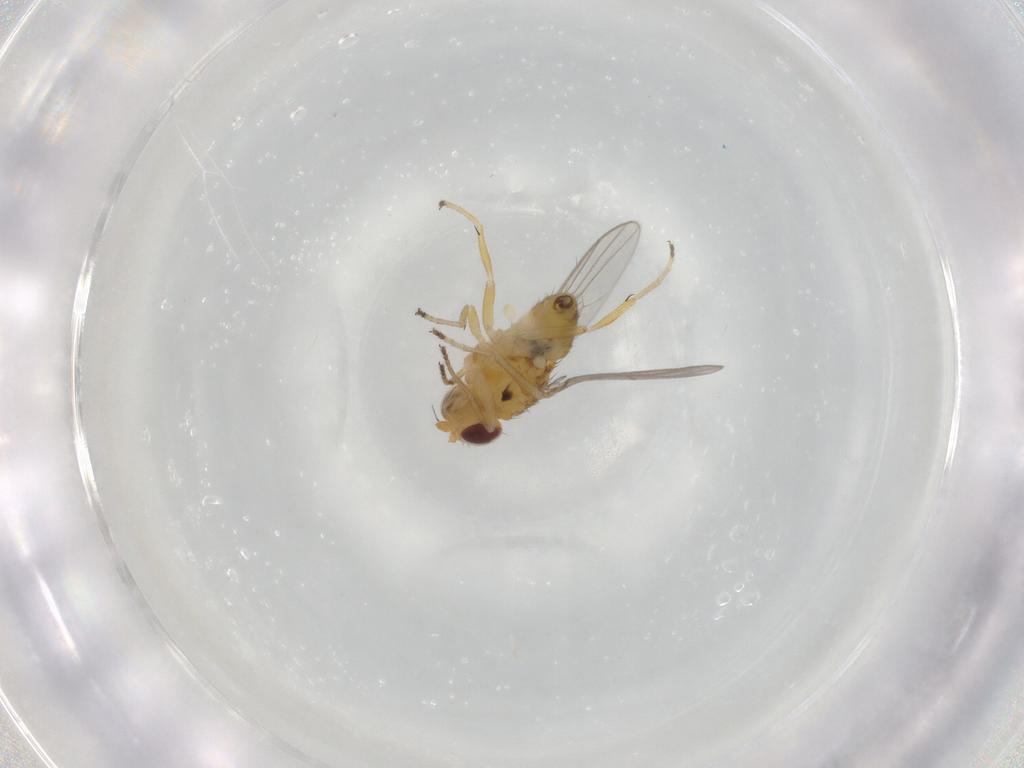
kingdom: Animalia
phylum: Arthropoda
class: Insecta
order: Diptera
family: Chloropidae
